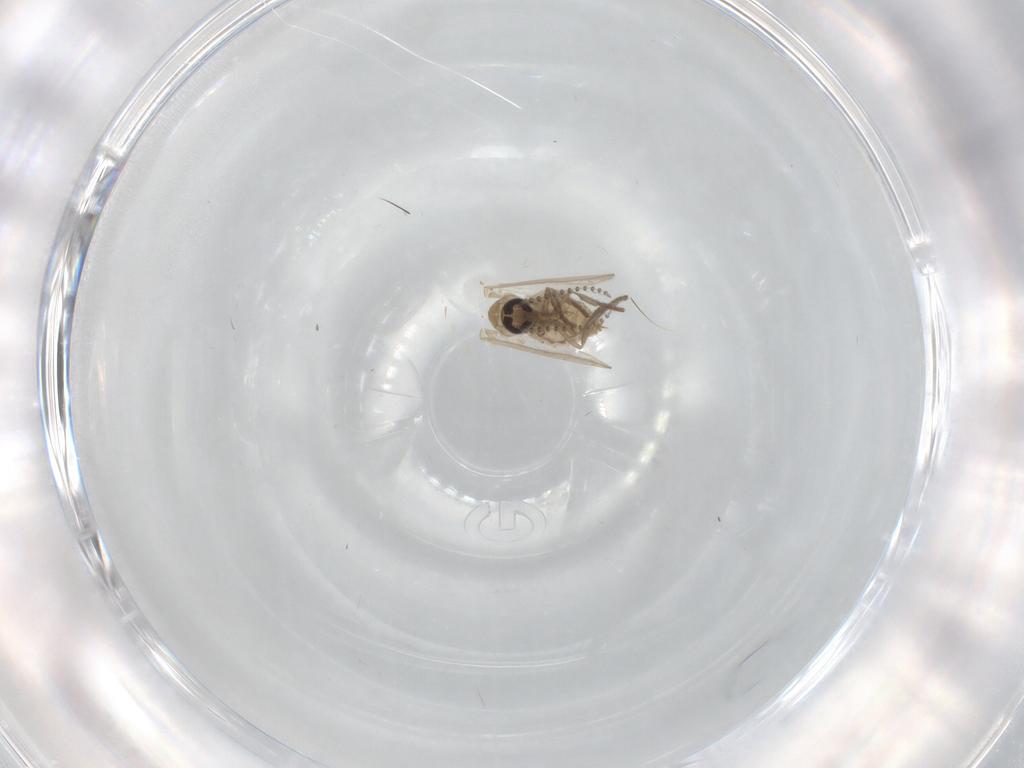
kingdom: Animalia
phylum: Arthropoda
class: Insecta
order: Diptera
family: Psychodidae
